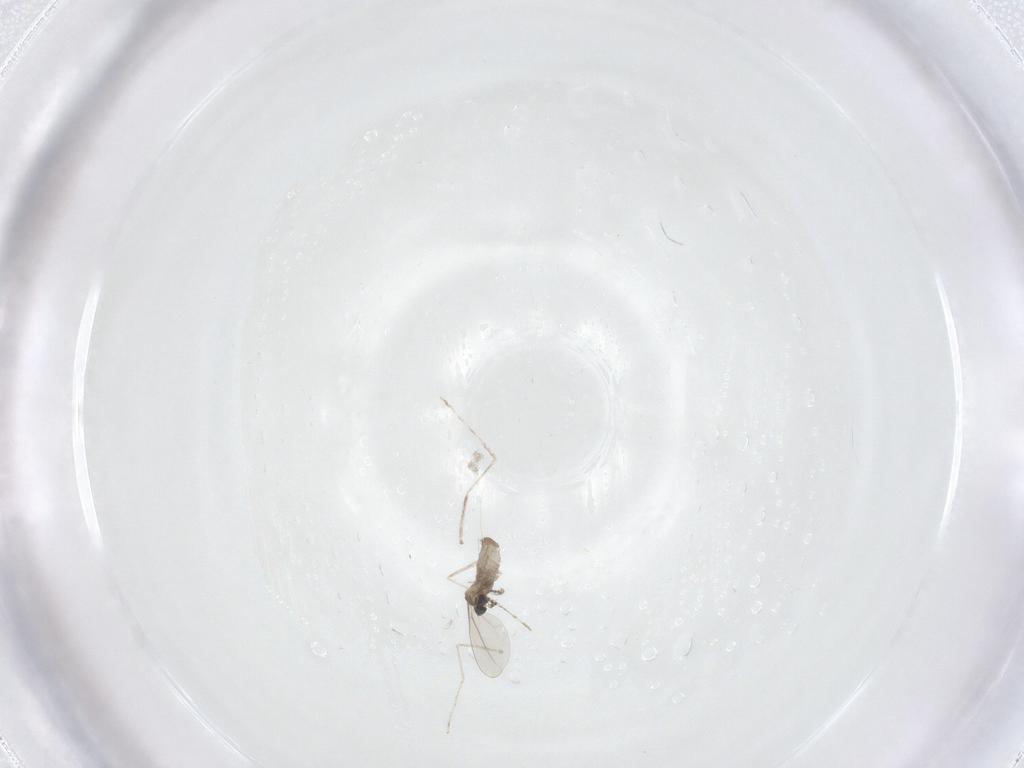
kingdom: Animalia
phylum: Arthropoda
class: Insecta
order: Diptera
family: Cecidomyiidae
